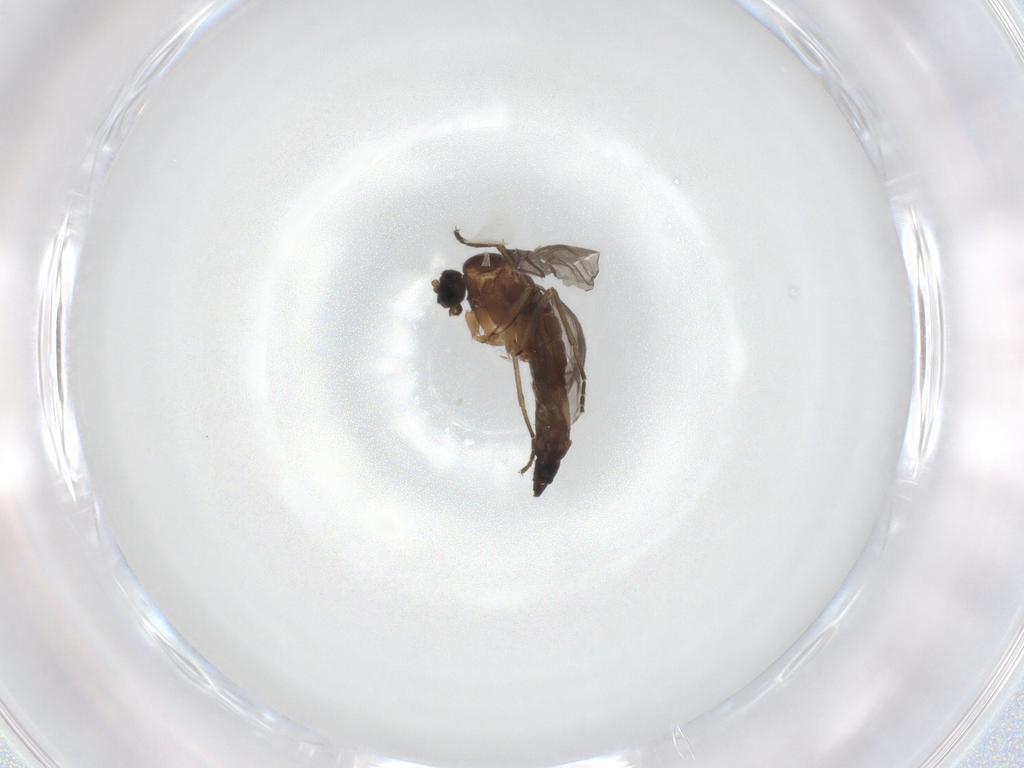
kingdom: Animalia
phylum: Arthropoda
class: Insecta
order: Diptera
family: Sciaridae
